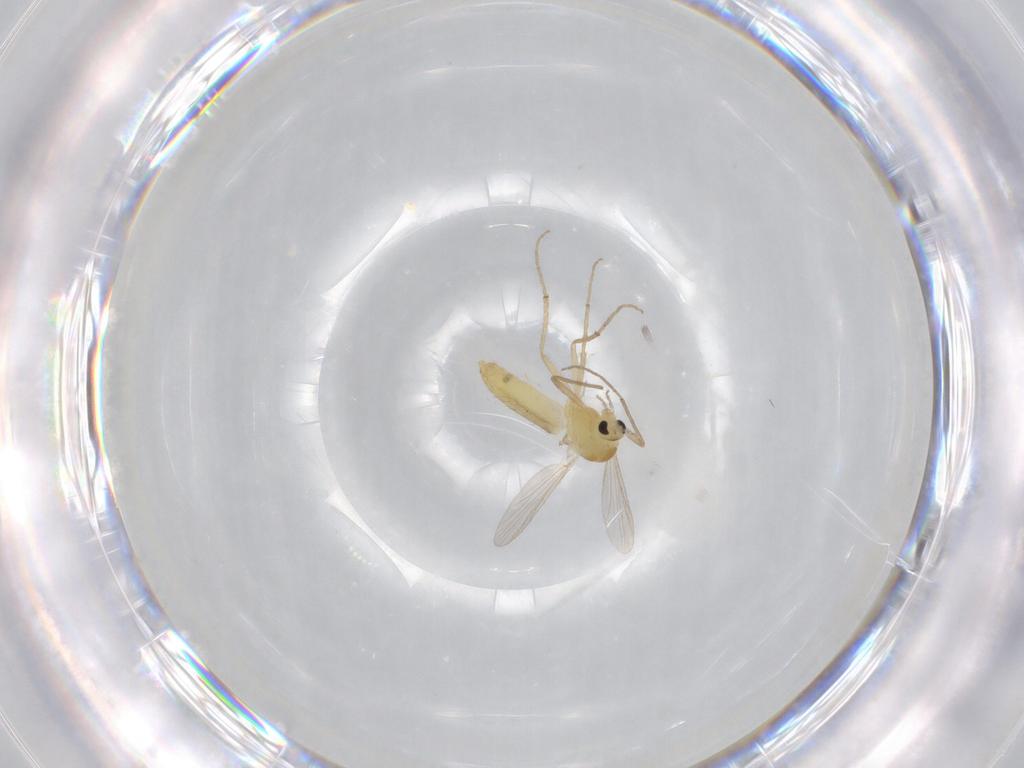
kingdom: Animalia
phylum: Arthropoda
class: Insecta
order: Diptera
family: Chironomidae
